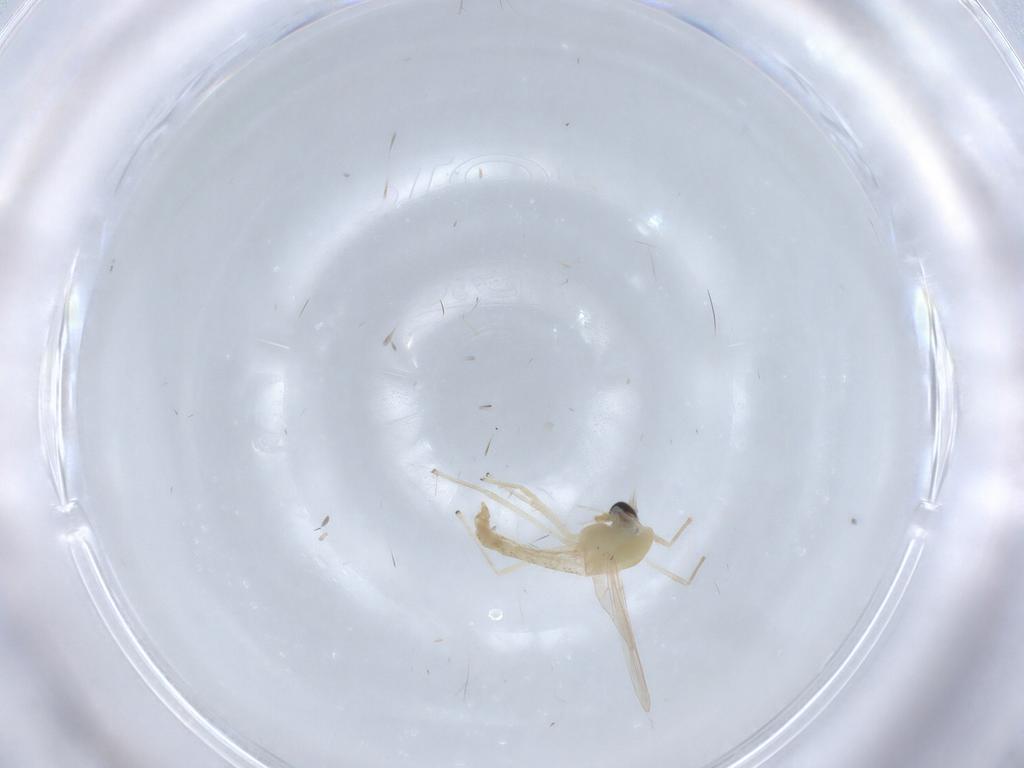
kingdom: Animalia
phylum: Arthropoda
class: Insecta
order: Diptera
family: Chironomidae
